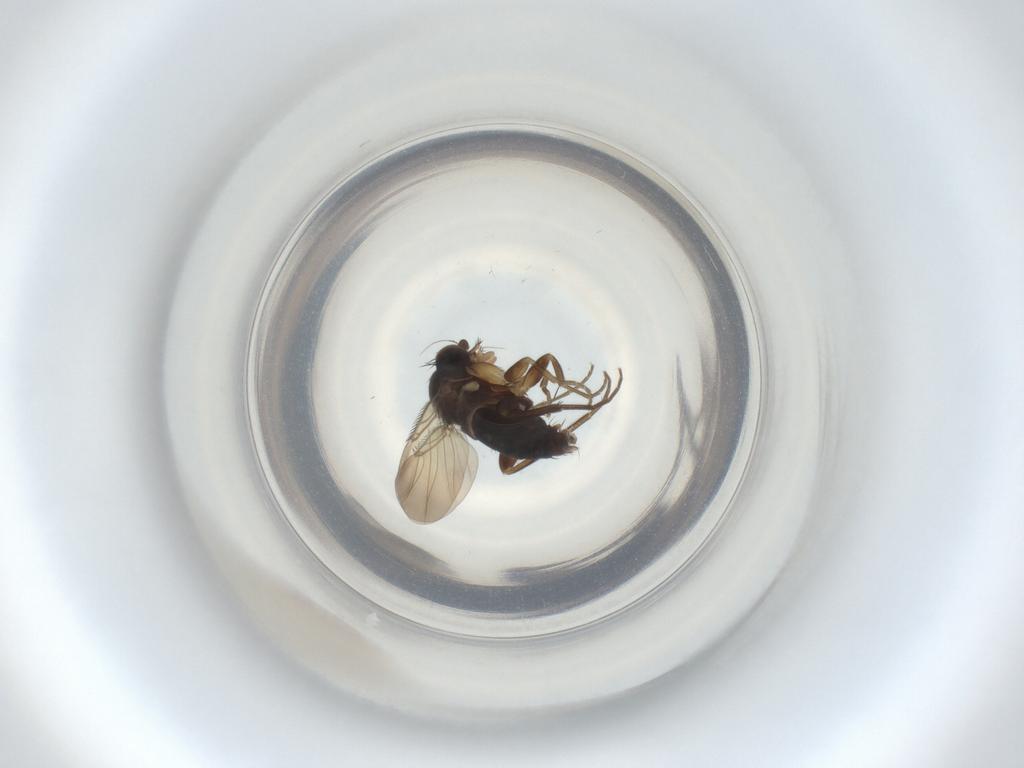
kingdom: Animalia
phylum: Arthropoda
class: Insecta
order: Diptera
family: Phoridae
